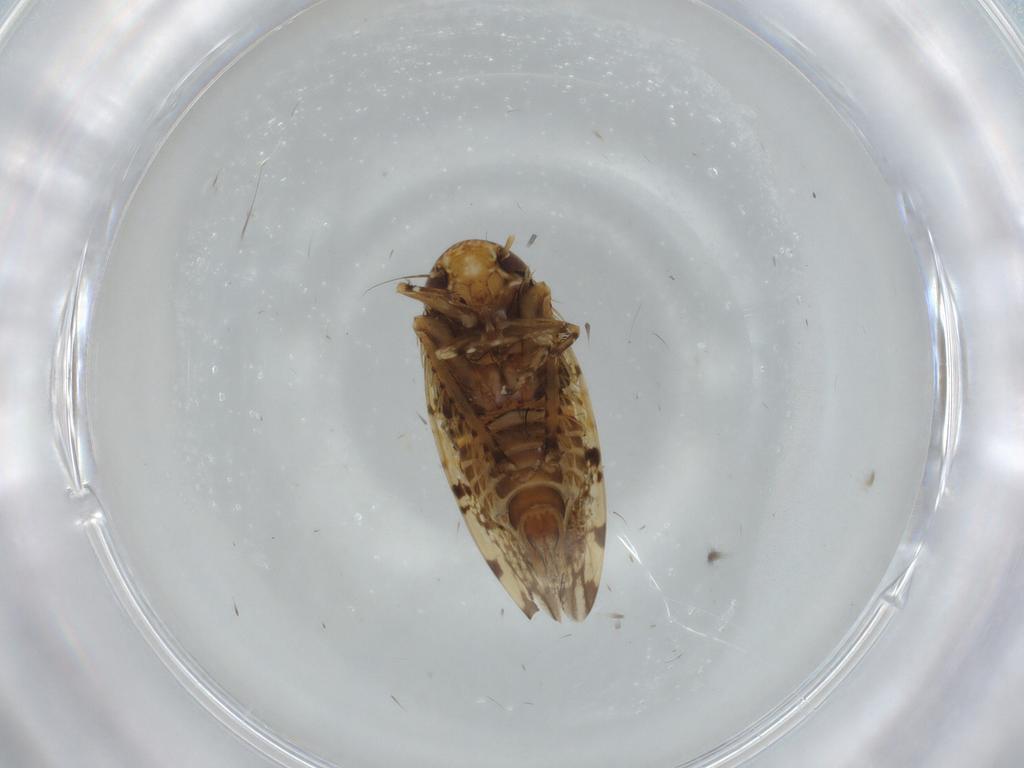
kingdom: Animalia
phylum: Arthropoda
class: Insecta
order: Hemiptera
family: Cicadellidae
